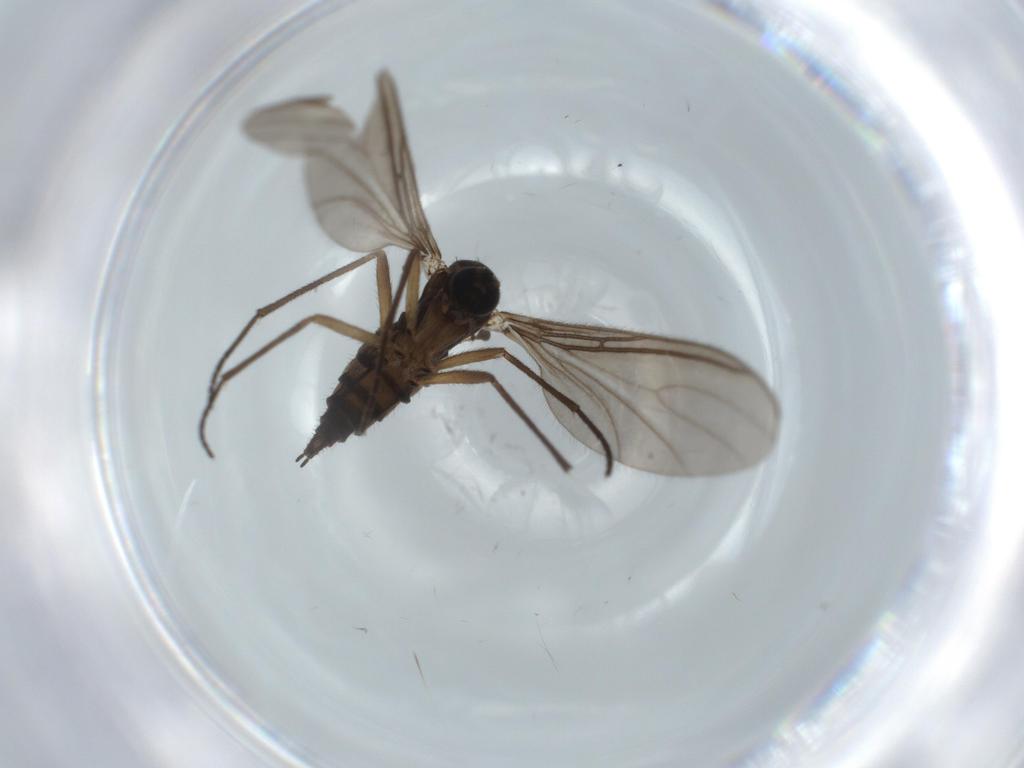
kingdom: Animalia
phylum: Arthropoda
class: Insecta
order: Diptera
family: Sciaridae
